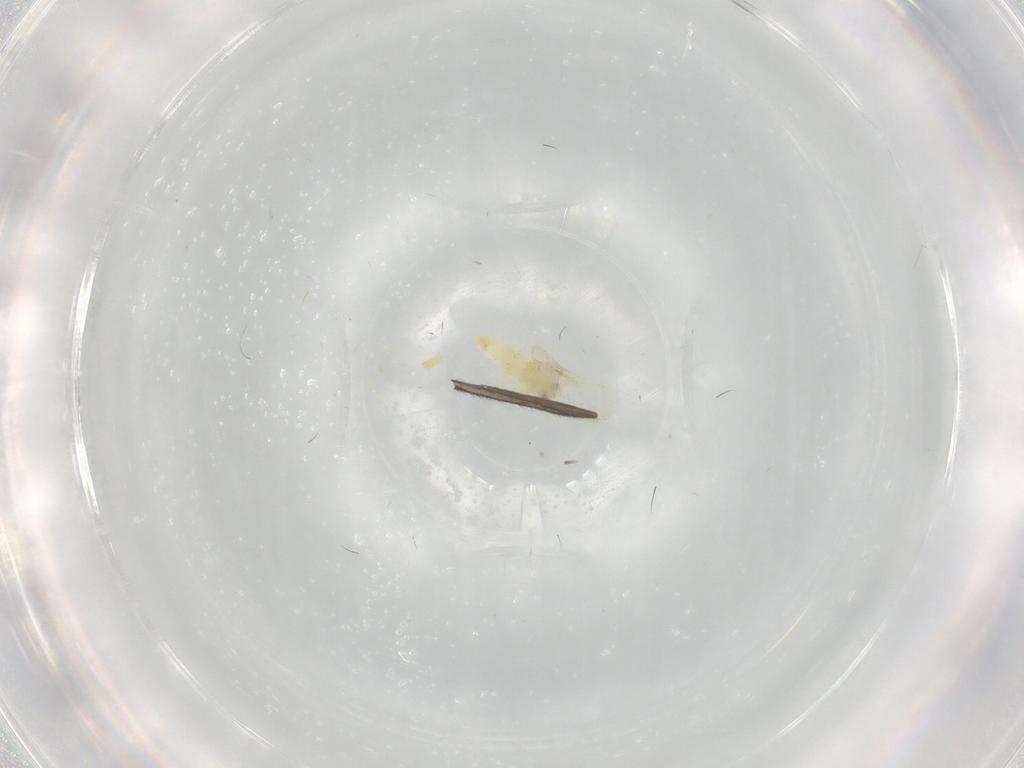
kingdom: Animalia
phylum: Arthropoda
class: Insecta
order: Hemiptera
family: Aleyrodidae
